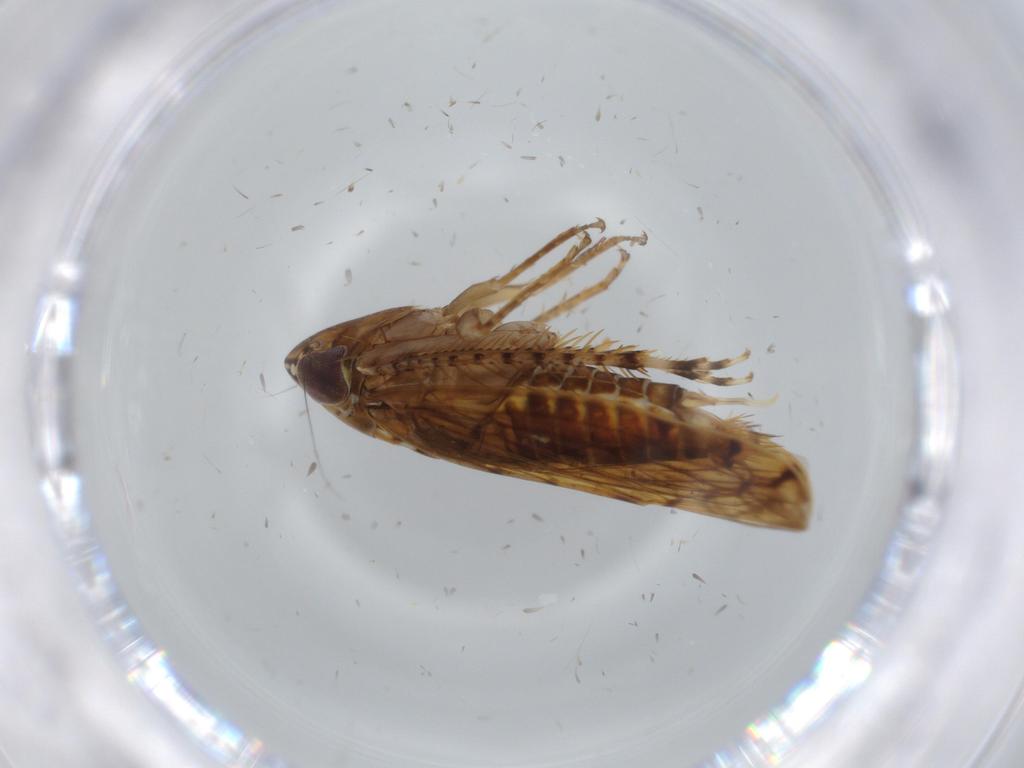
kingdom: Animalia
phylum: Arthropoda
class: Insecta
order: Hemiptera
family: Cicadellidae
